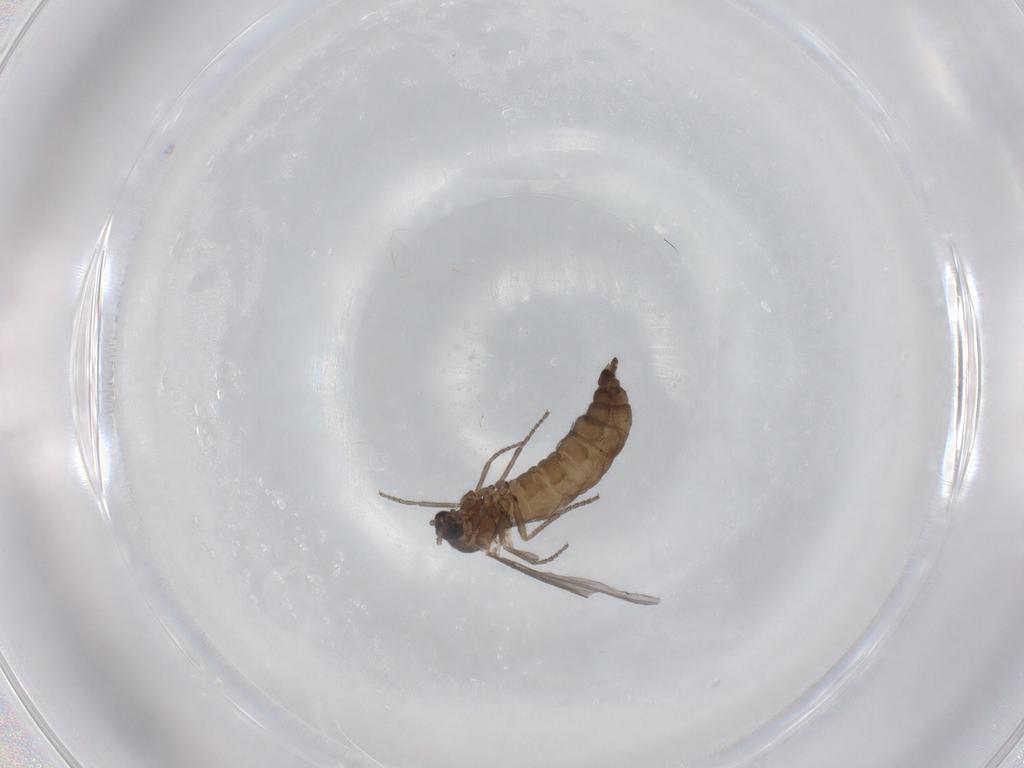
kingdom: Animalia
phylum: Arthropoda
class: Insecta
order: Diptera
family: Sciaridae
